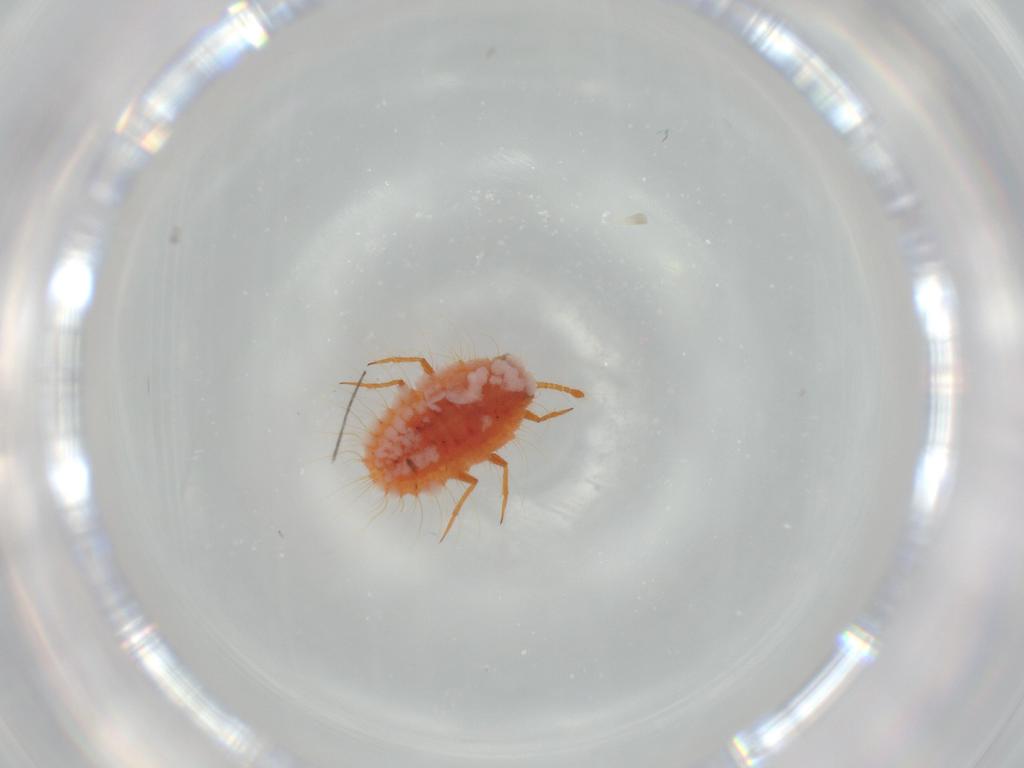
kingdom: Animalia
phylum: Arthropoda
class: Insecta
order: Hemiptera
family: Coccoidea_incertae_sedis
